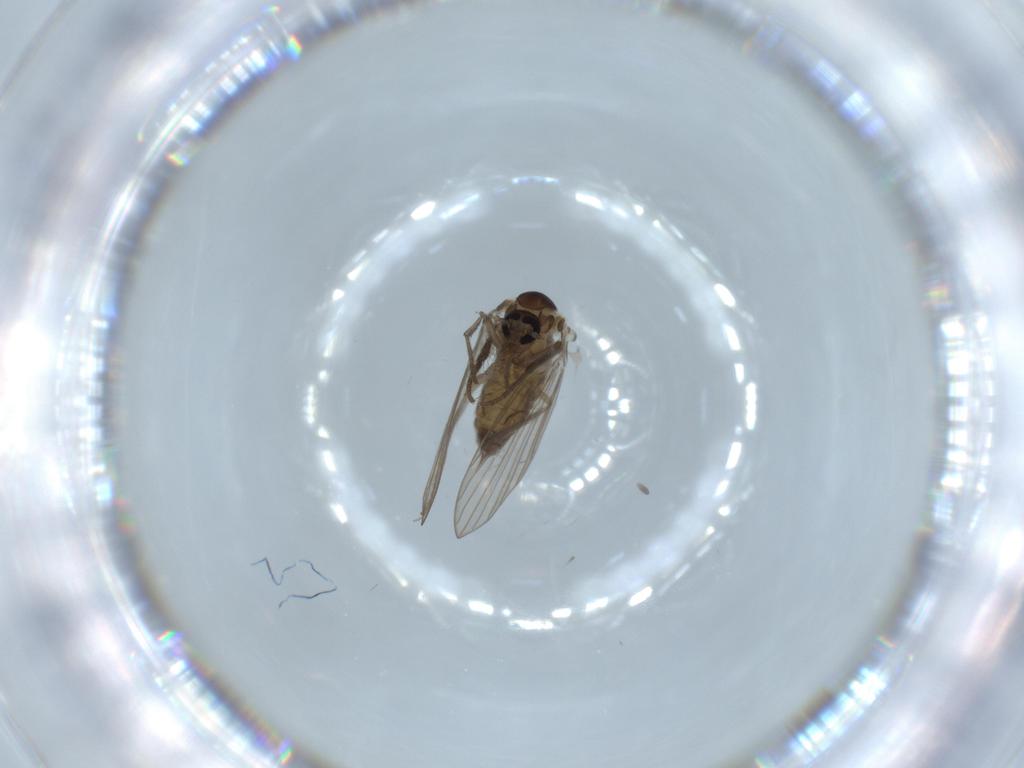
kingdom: Animalia
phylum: Arthropoda
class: Insecta
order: Diptera
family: Psychodidae
